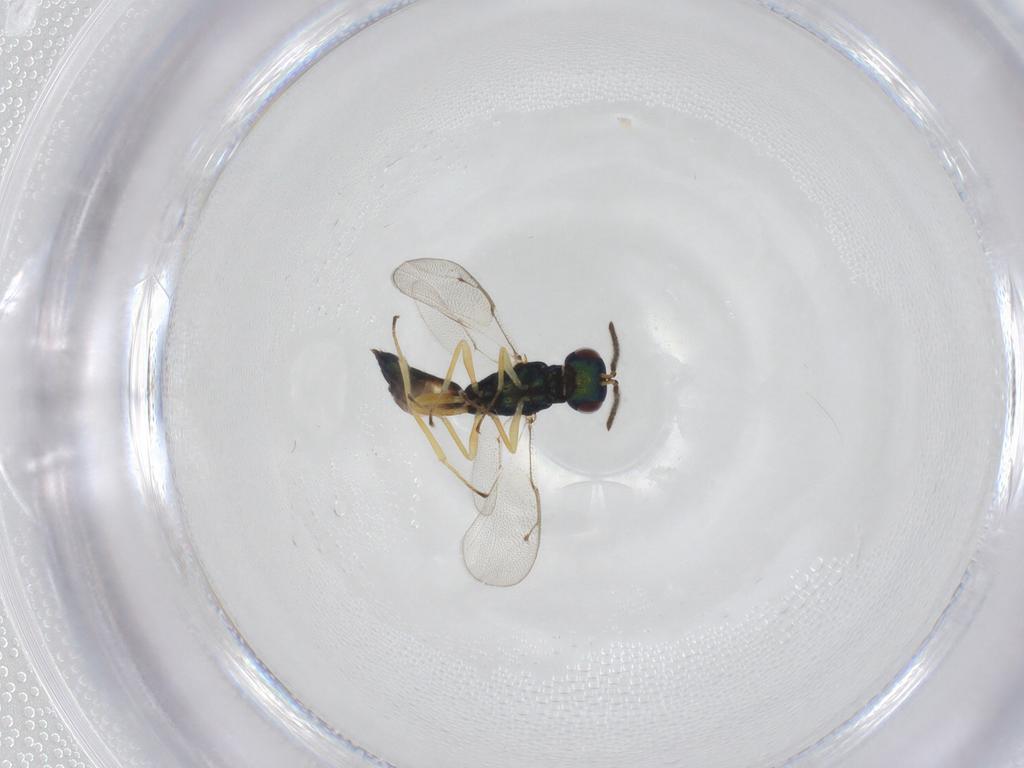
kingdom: Animalia
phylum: Arthropoda
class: Insecta
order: Hymenoptera
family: Pteromalidae
